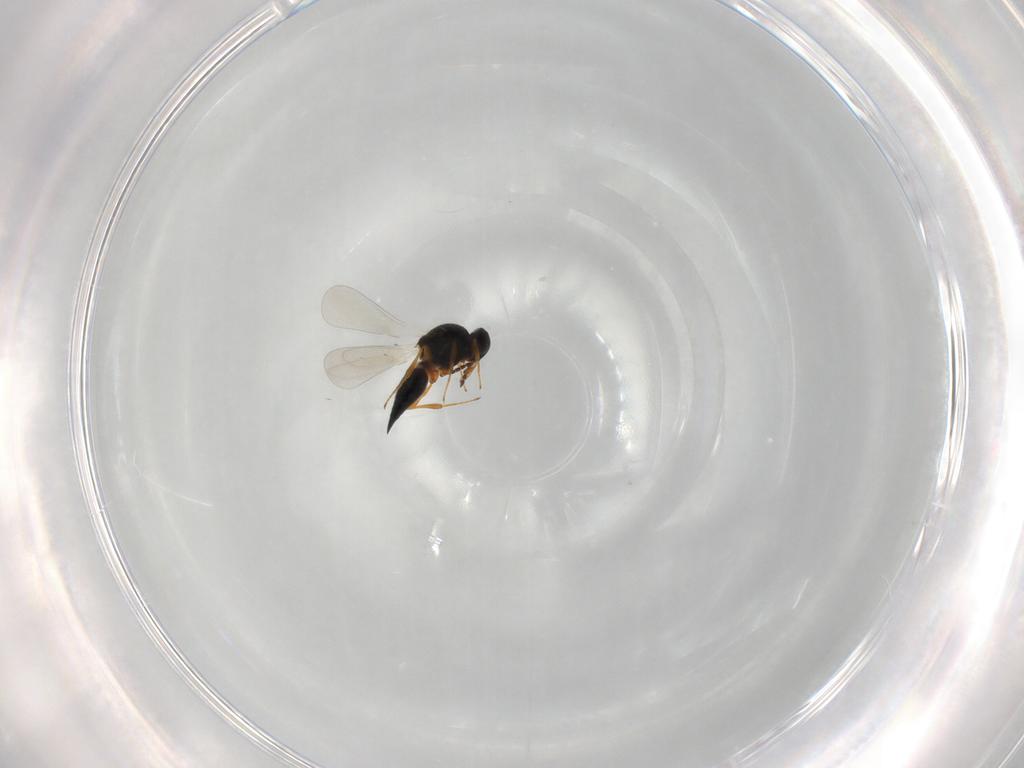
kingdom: Animalia
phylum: Arthropoda
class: Insecta
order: Hymenoptera
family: Platygastridae
